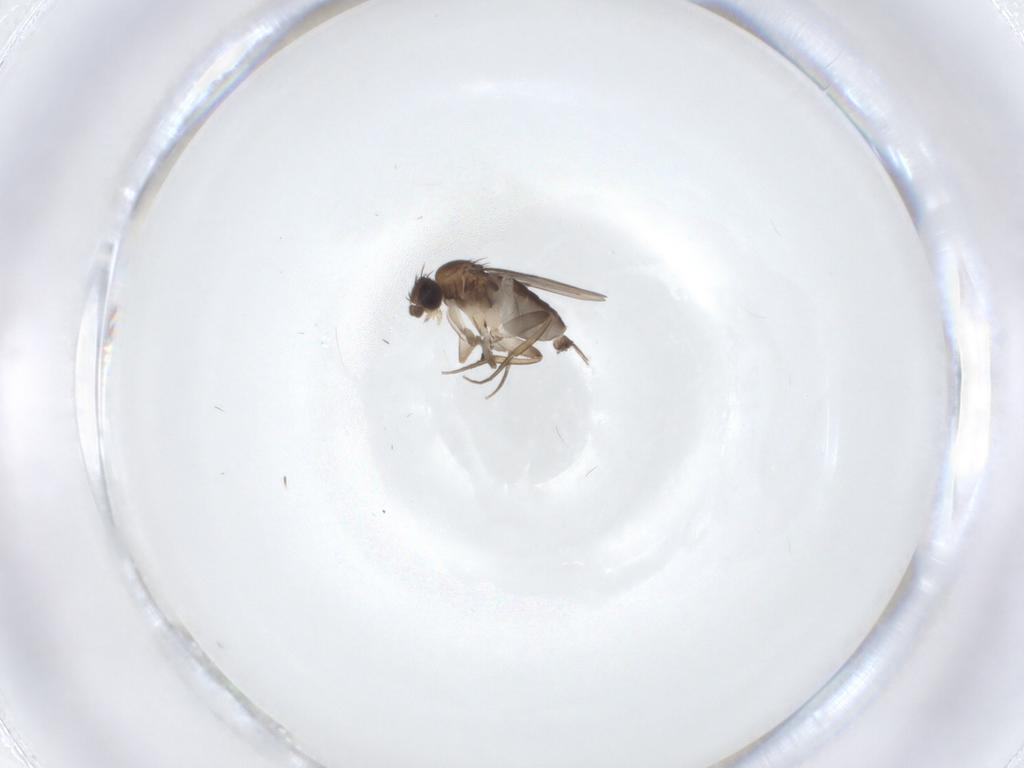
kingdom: Animalia
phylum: Arthropoda
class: Insecta
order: Diptera
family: Phoridae
